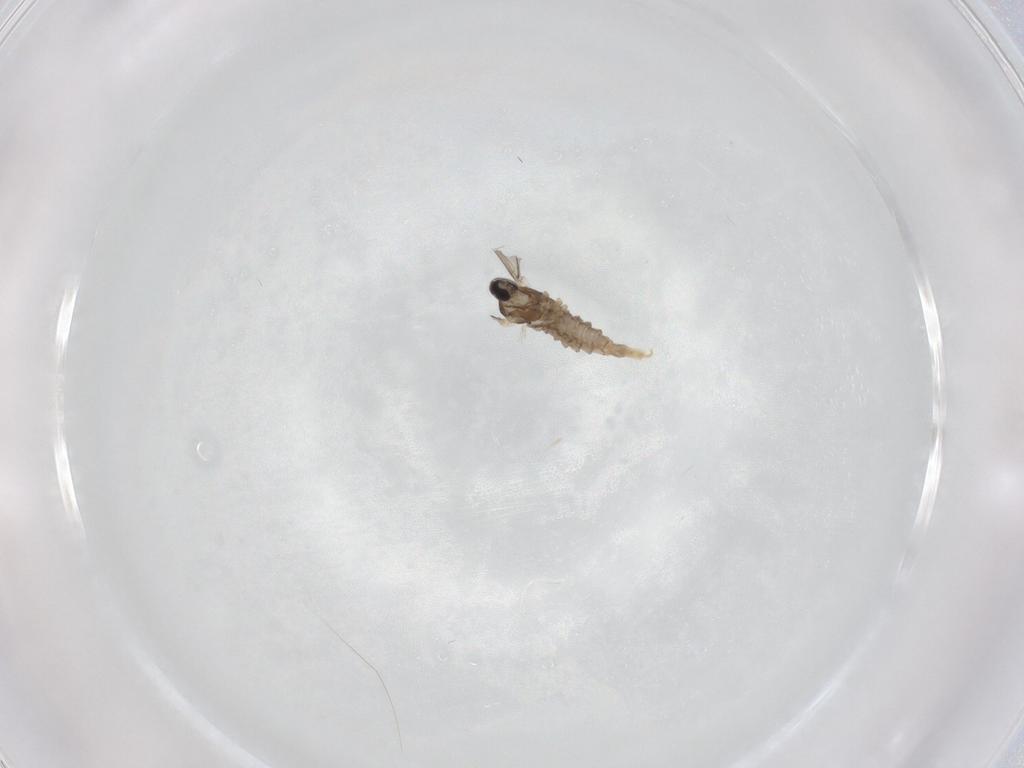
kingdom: Animalia
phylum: Arthropoda
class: Insecta
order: Diptera
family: Cecidomyiidae
